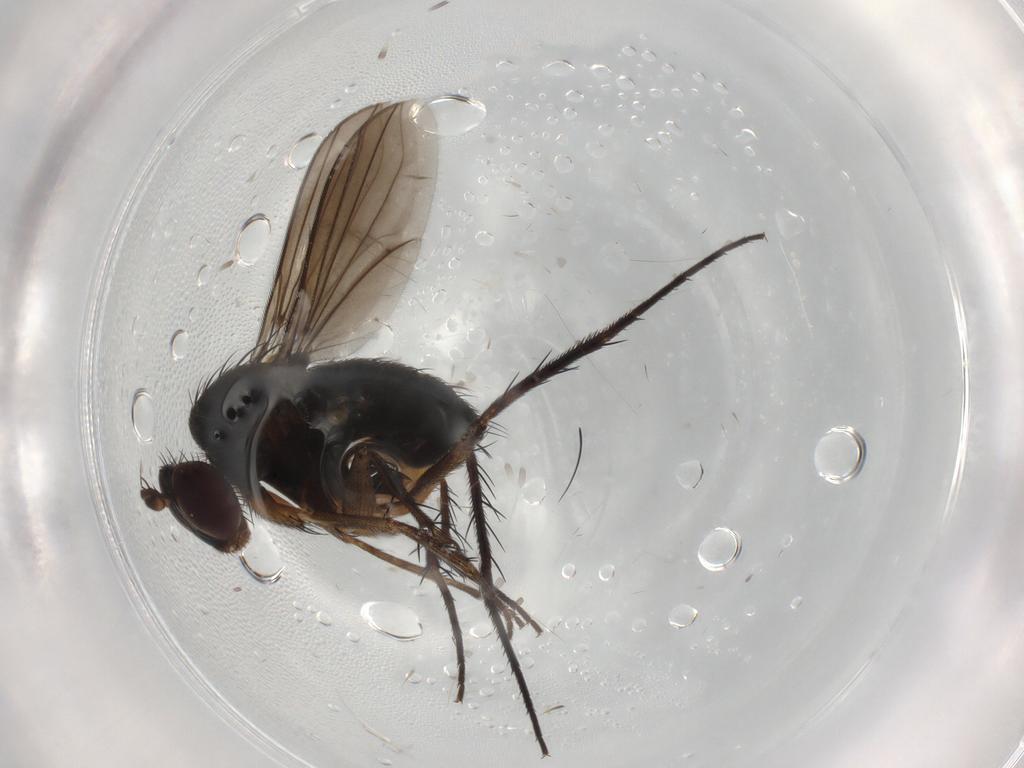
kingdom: Animalia
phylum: Arthropoda
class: Insecta
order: Diptera
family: Dolichopodidae
